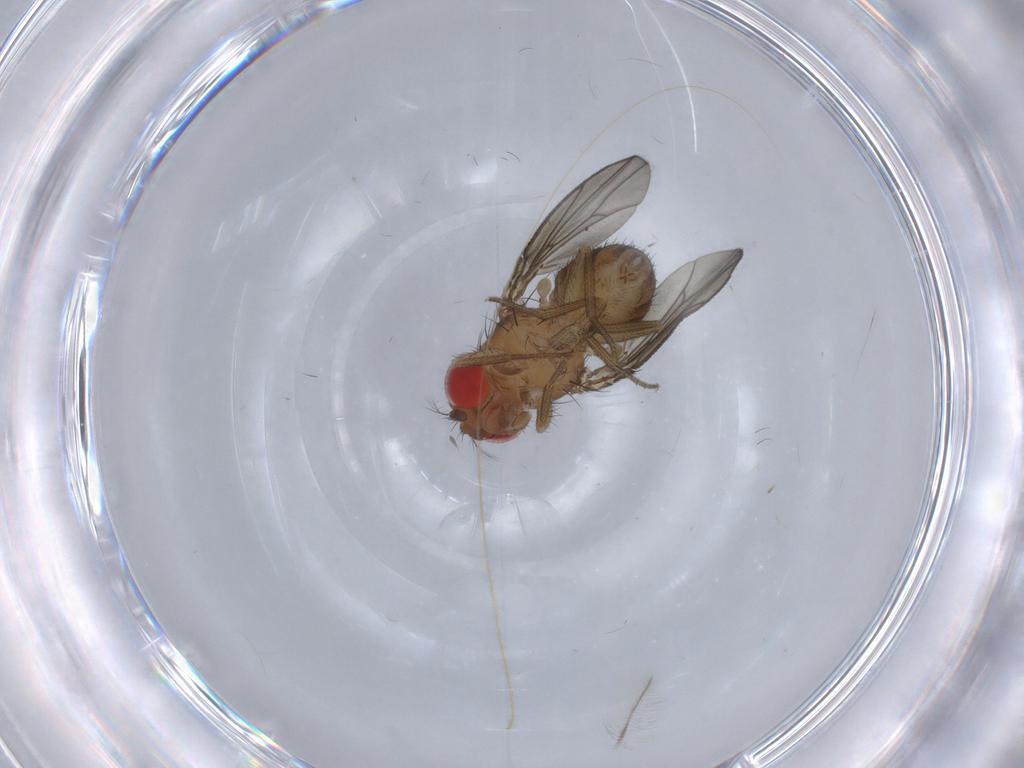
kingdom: Animalia
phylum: Arthropoda
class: Insecta
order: Diptera
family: Drosophilidae
